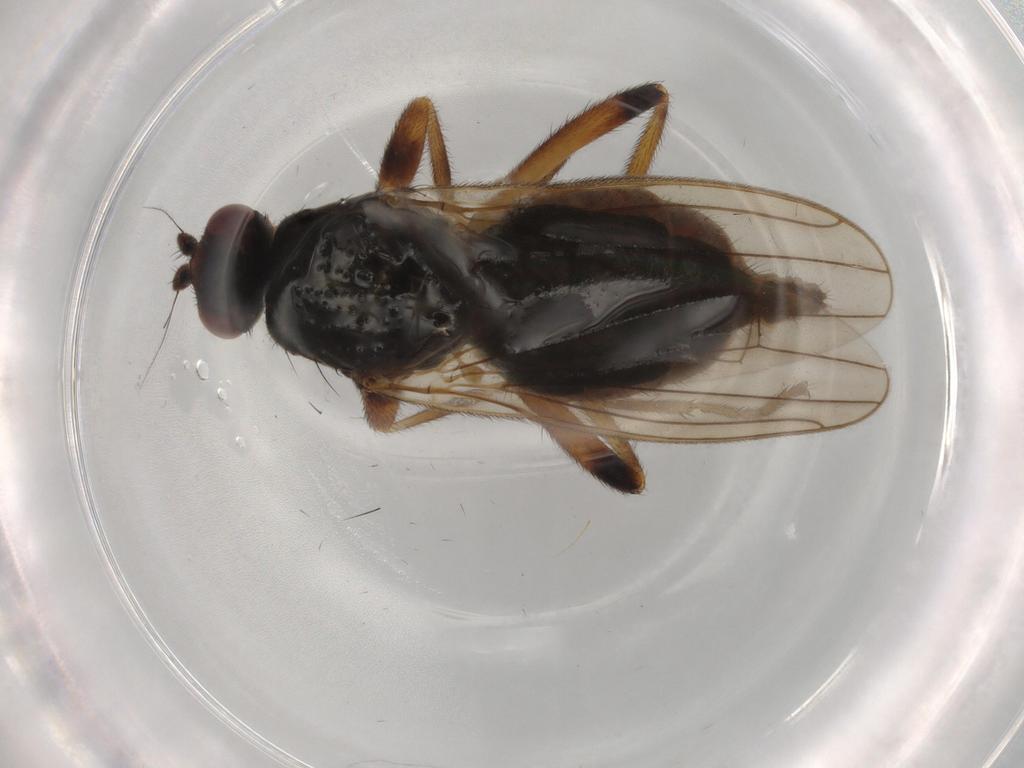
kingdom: Animalia
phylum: Arthropoda
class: Insecta
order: Diptera
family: Sphaeroceridae
